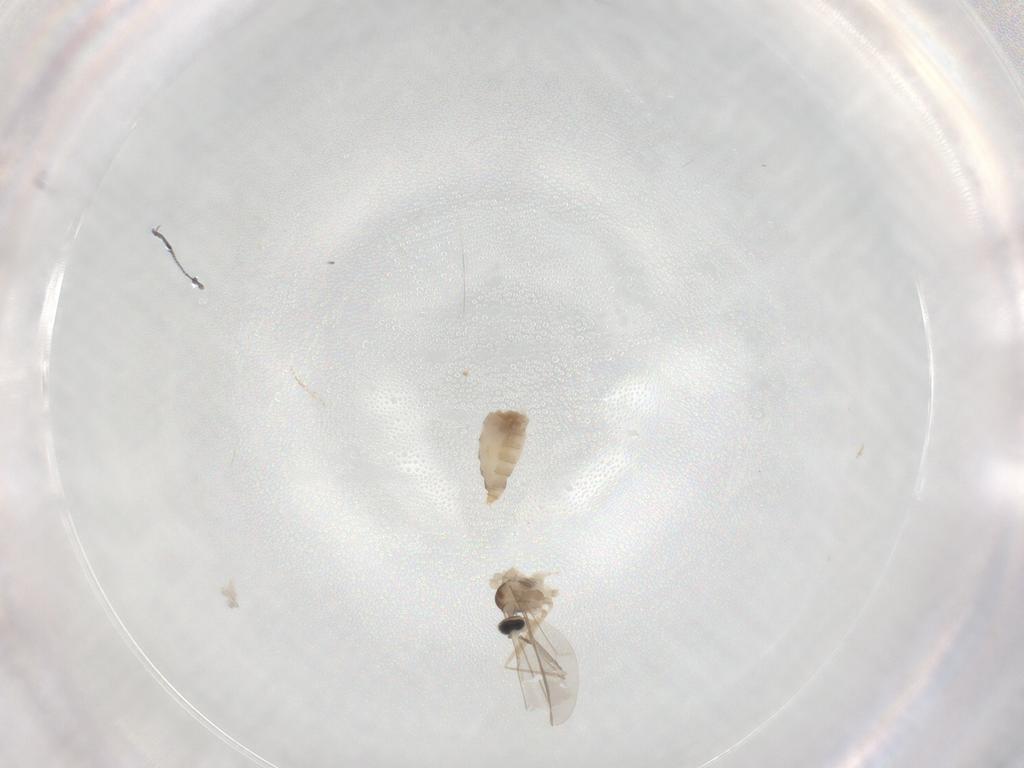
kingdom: Animalia
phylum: Arthropoda
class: Insecta
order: Diptera
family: Cecidomyiidae
